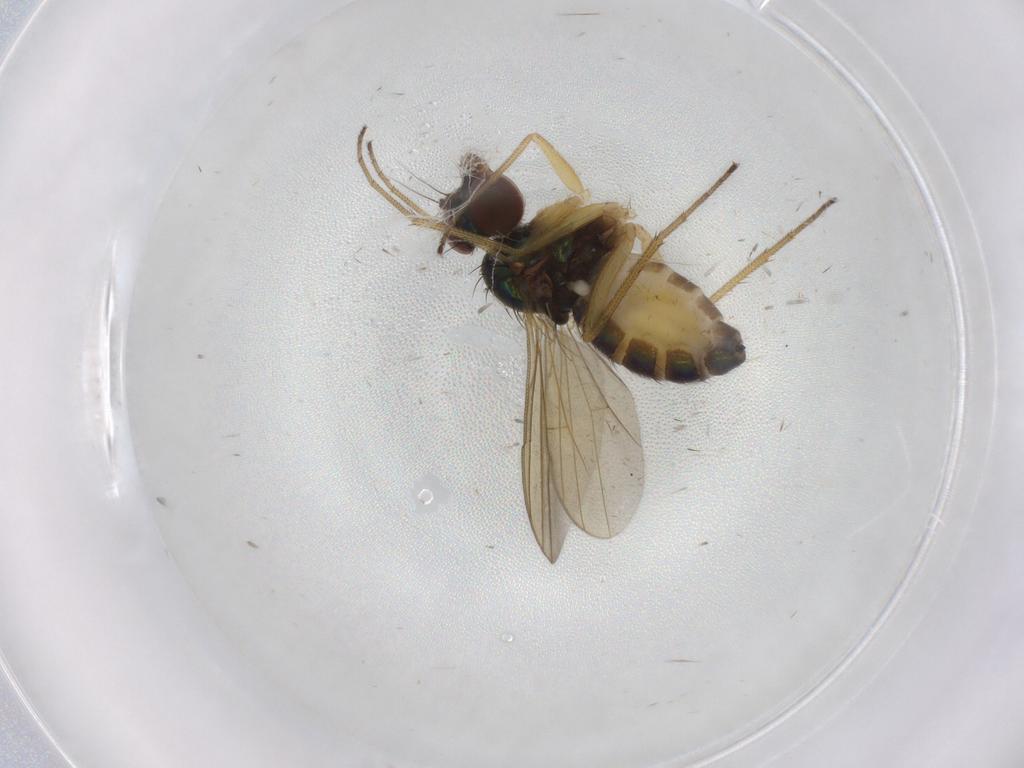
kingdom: Animalia
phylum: Arthropoda
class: Insecta
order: Diptera
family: Dolichopodidae
